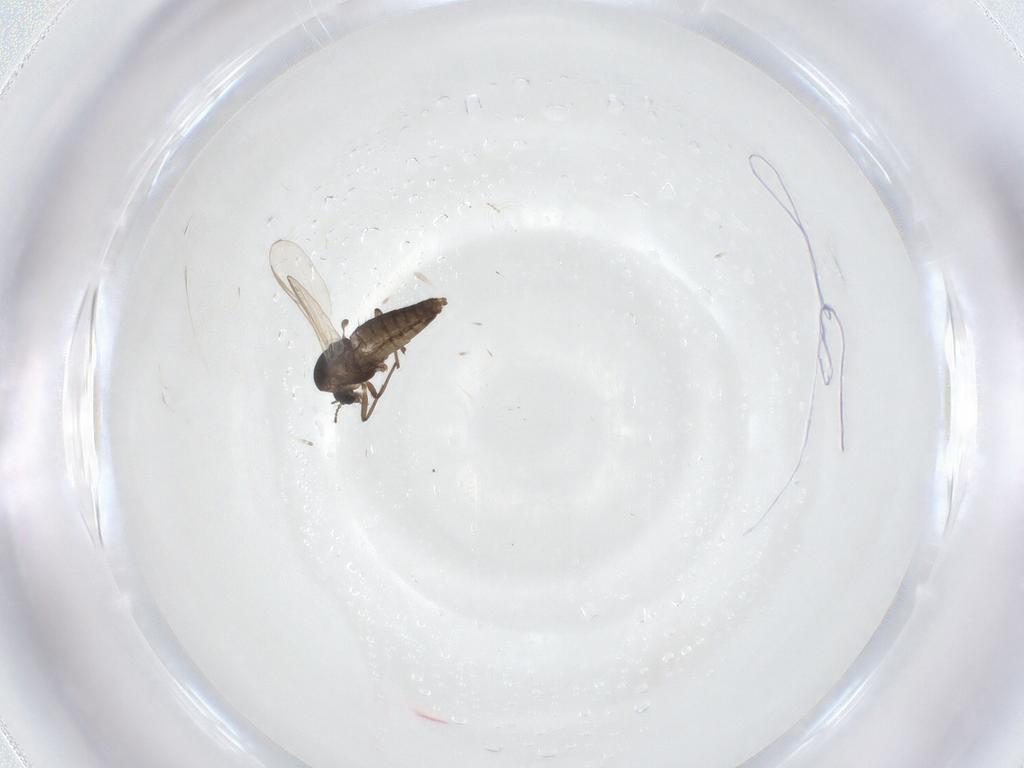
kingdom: Animalia
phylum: Arthropoda
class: Insecta
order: Diptera
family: Chironomidae
